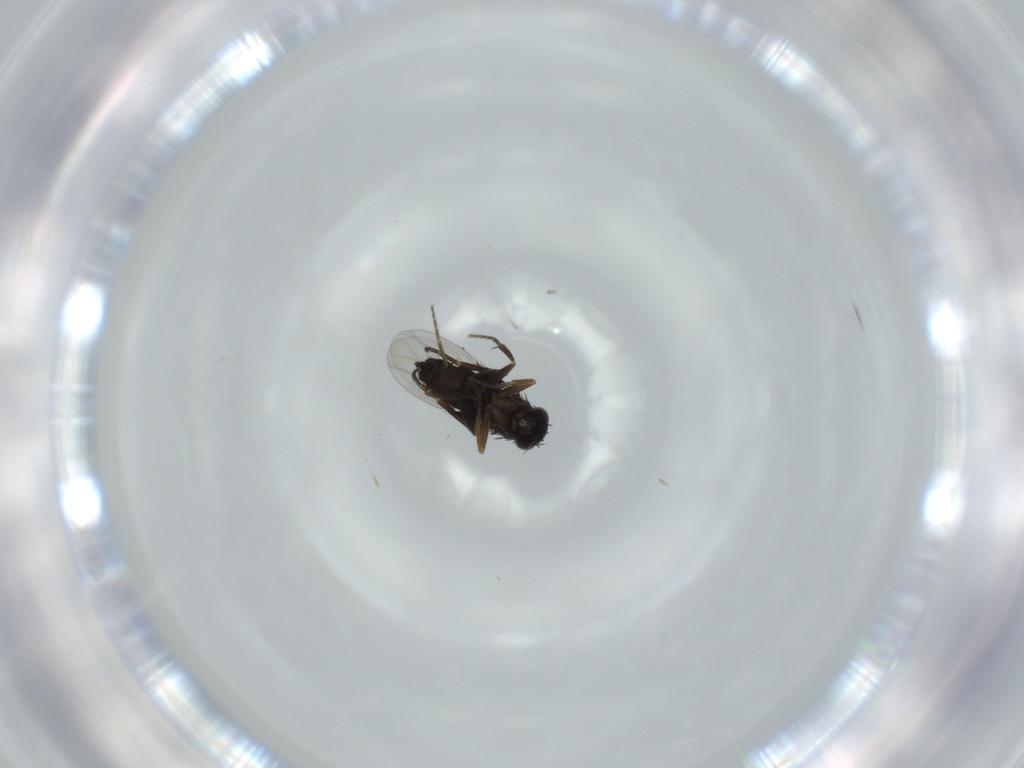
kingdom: Animalia
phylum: Arthropoda
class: Insecta
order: Diptera
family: Phoridae
